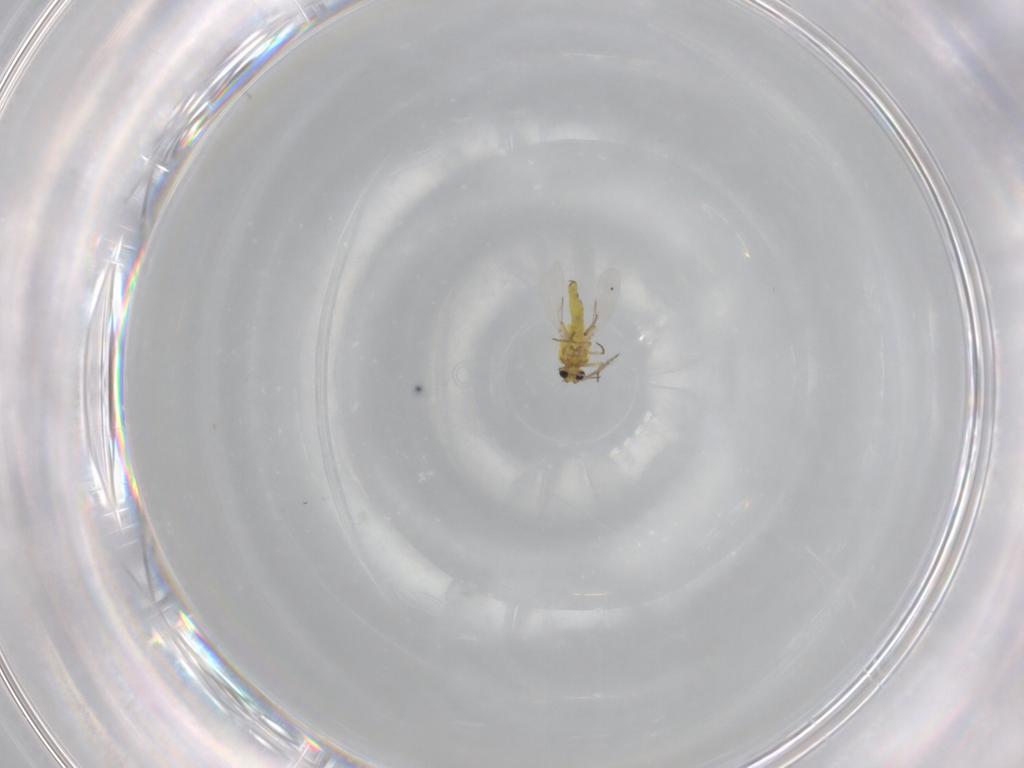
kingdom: Animalia
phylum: Arthropoda
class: Insecta
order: Diptera
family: Ceratopogonidae
